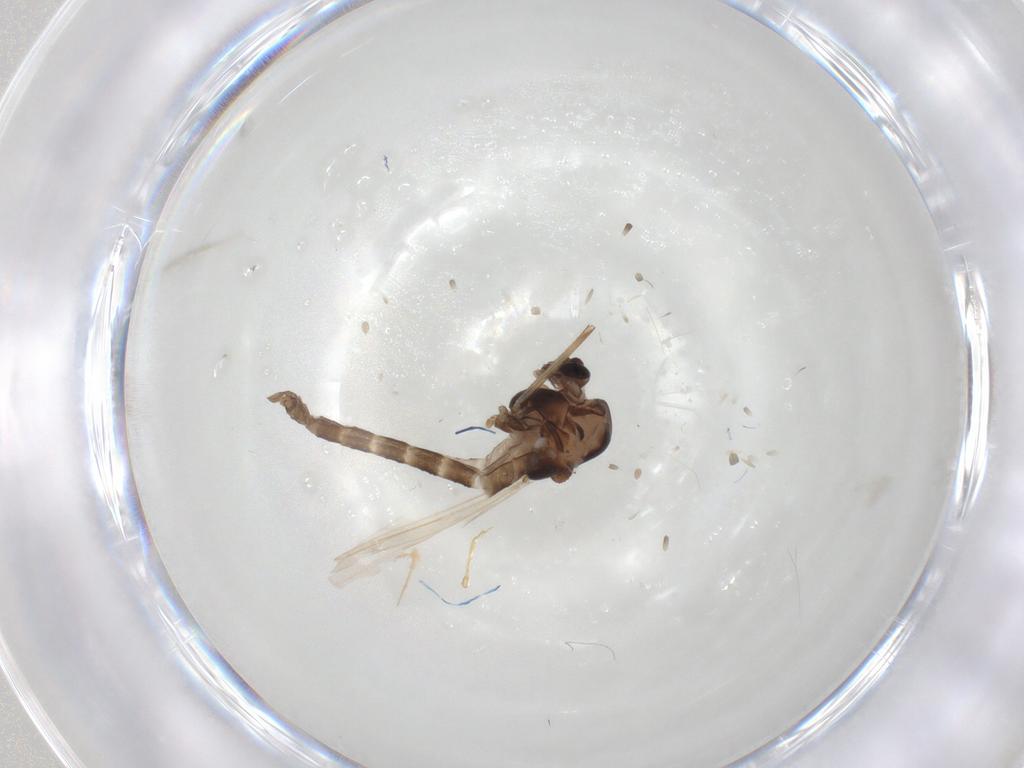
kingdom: Animalia
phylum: Arthropoda
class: Insecta
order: Diptera
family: Chironomidae
